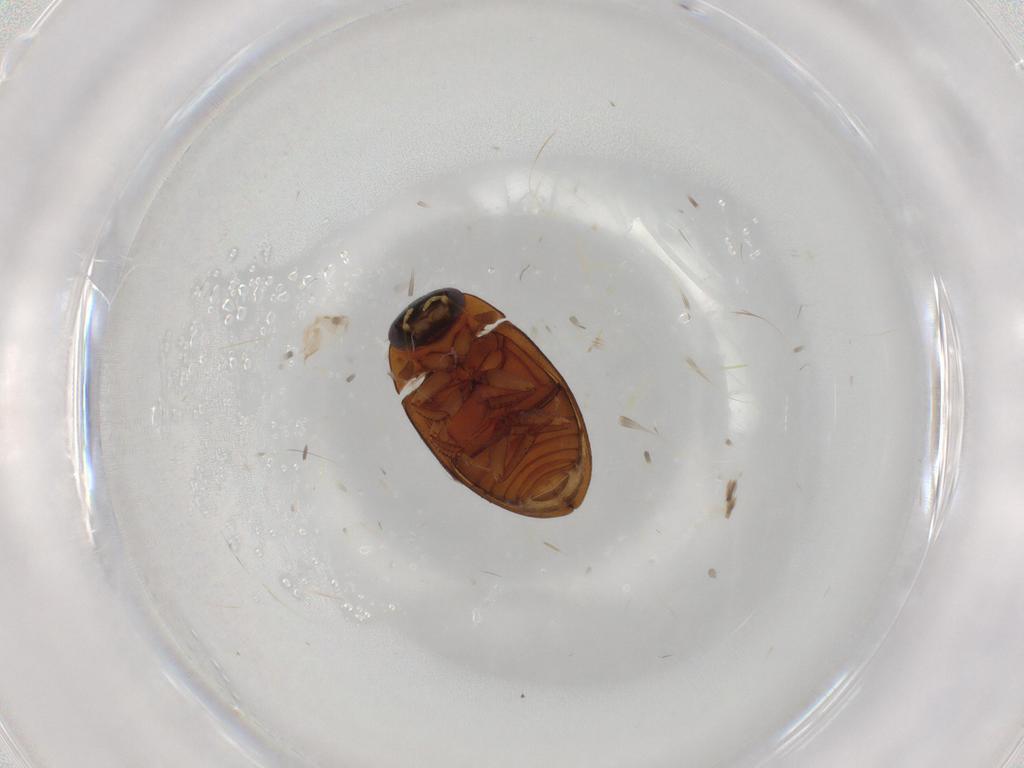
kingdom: Animalia
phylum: Arthropoda
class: Insecta
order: Coleoptera
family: Hydrophilidae
